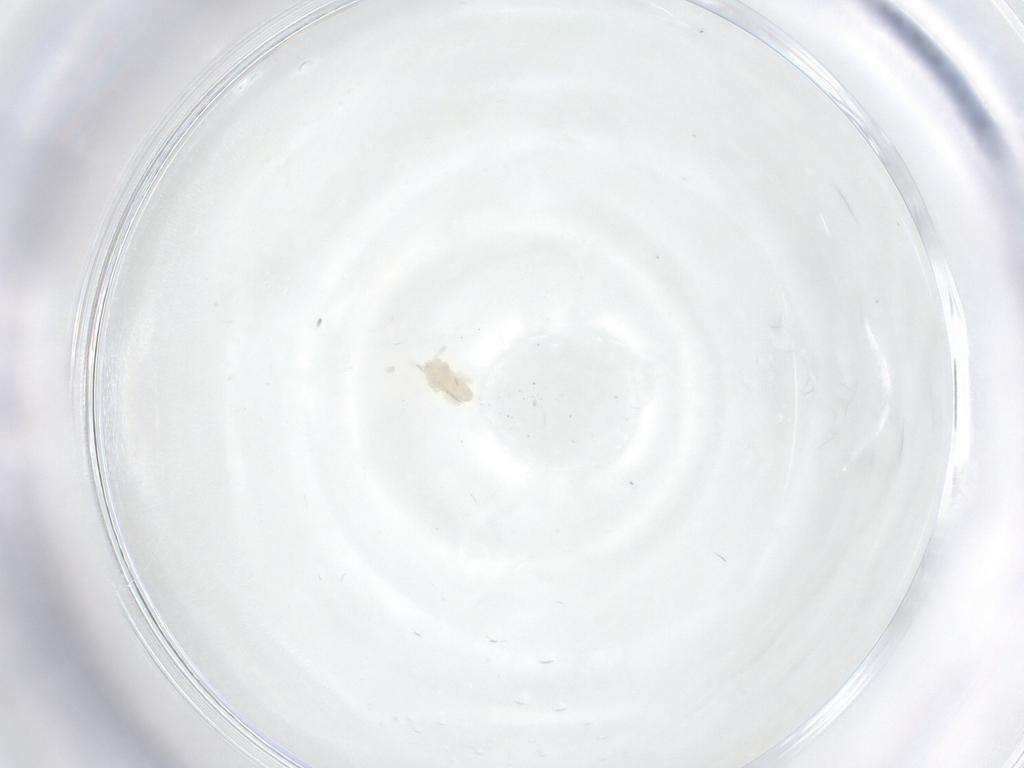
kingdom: Animalia
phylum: Arthropoda
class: Arachnida
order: Trombidiformes
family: Eupodidae
